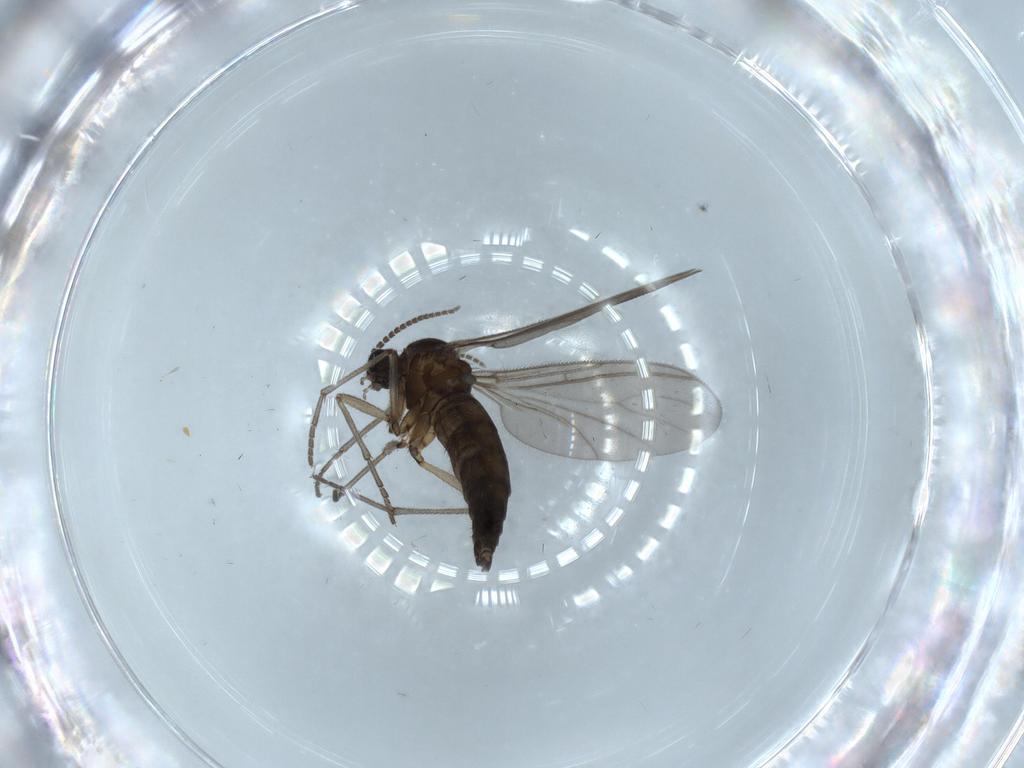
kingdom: Animalia
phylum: Arthropoda
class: Insecta
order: Diptera
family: Sciaridae
